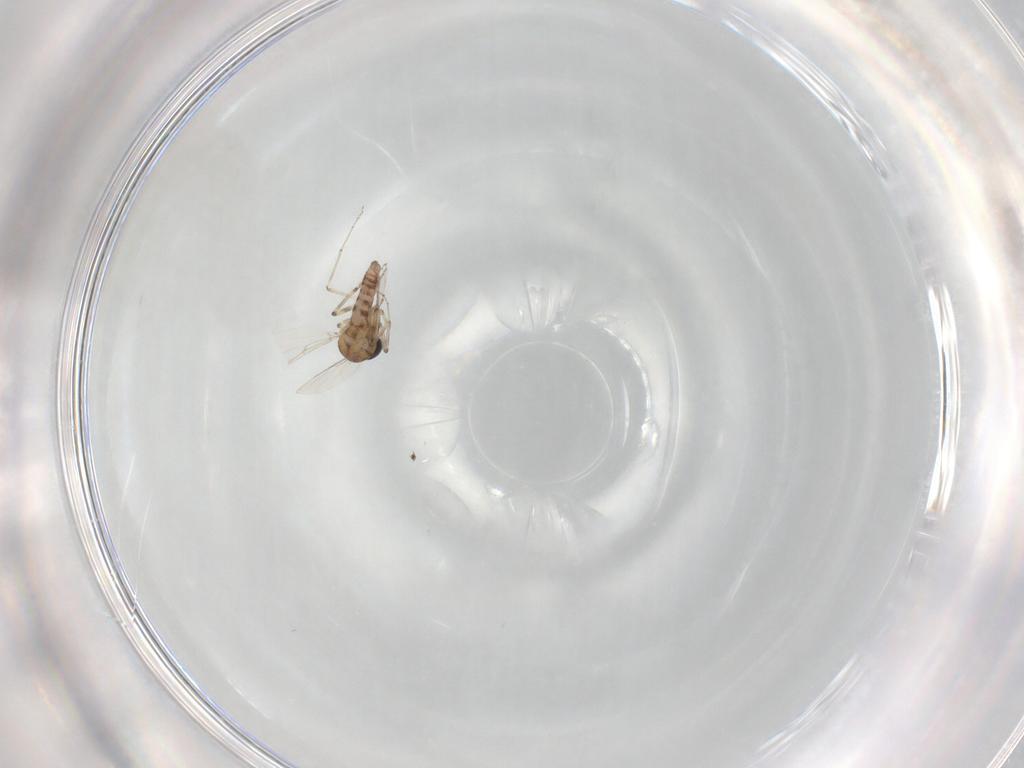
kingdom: Animalia
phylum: Arthropoda
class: Insecta
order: Diptera
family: Ceratopogonidae
